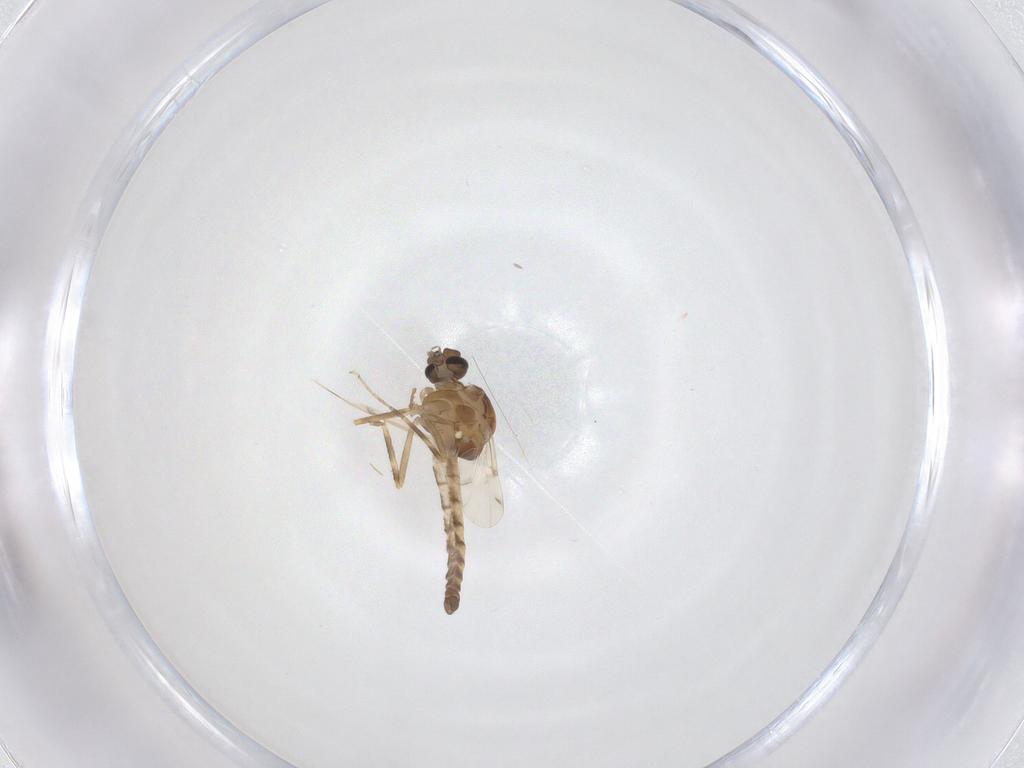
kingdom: Animalia
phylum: Arthropoda
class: Insecta
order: Diptera
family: Ceratopogonidae
